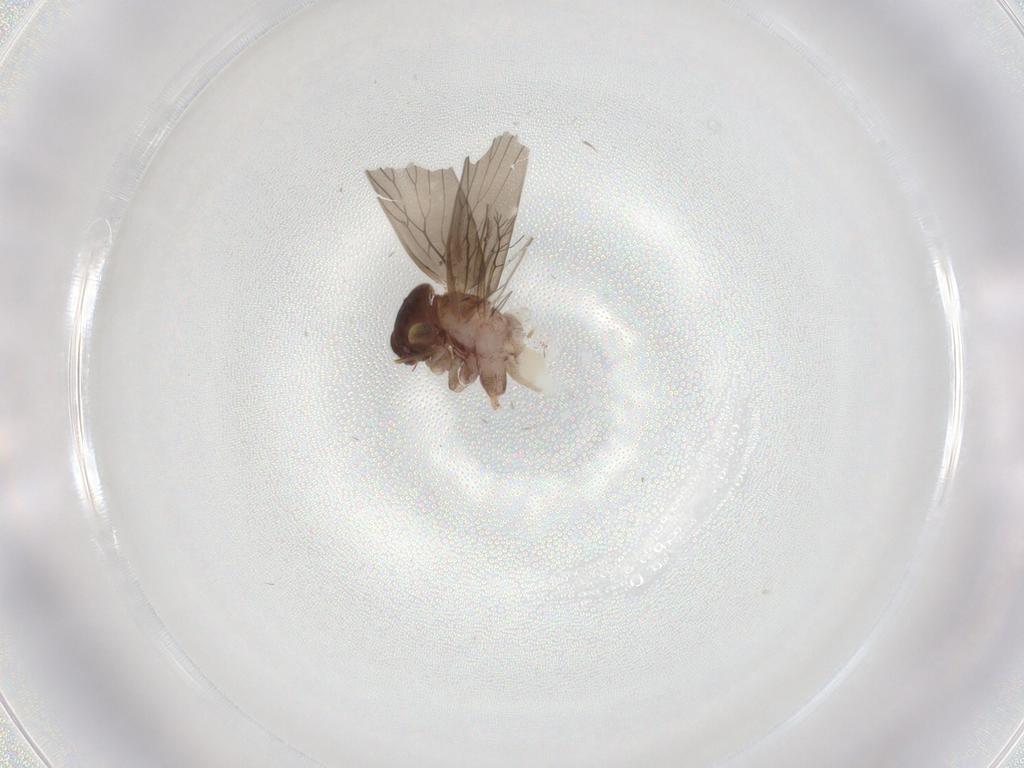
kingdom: Animalia
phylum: Arthropoda
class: Insecta
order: Psocodea
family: Lepidopsocidae
